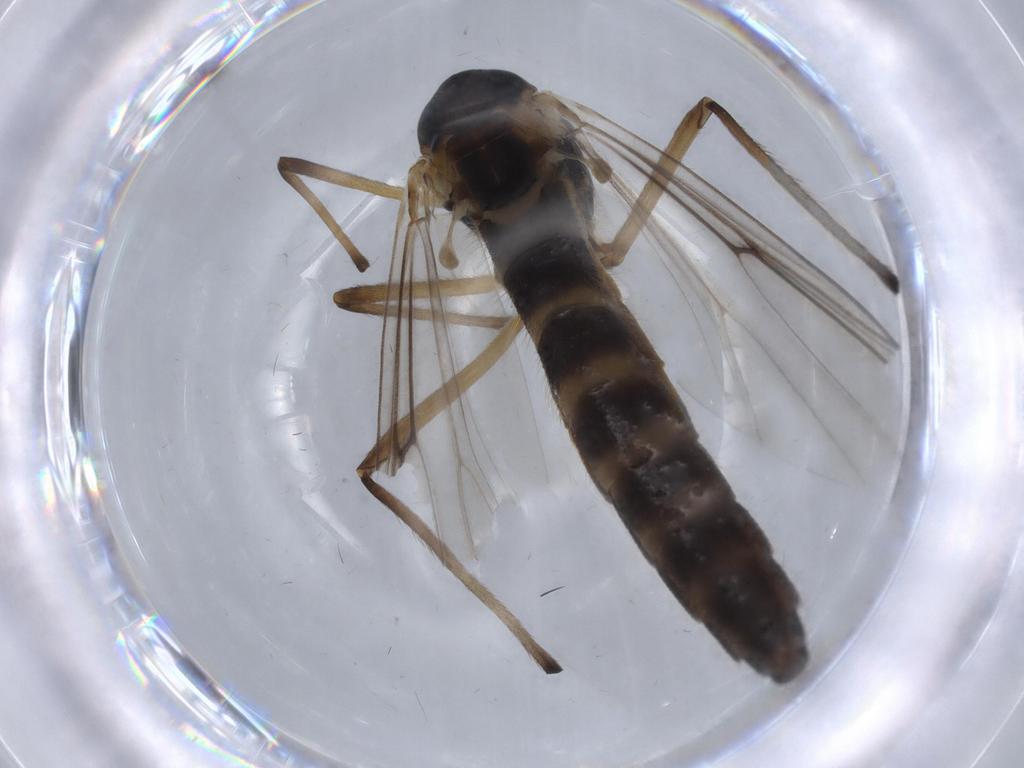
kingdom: Animalia
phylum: Arthropoda
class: Insecta
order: Diptera
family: Chironomidae
